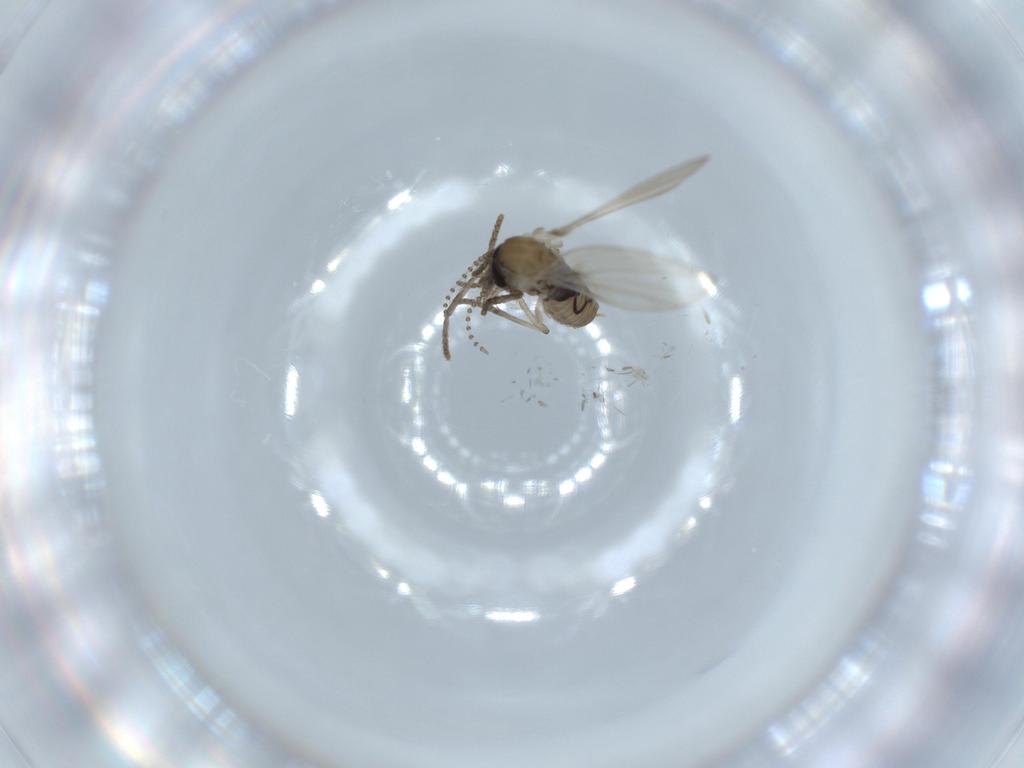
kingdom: Animalia
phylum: Arthropoda
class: Insecta
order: Diptera
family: Psychodidae
